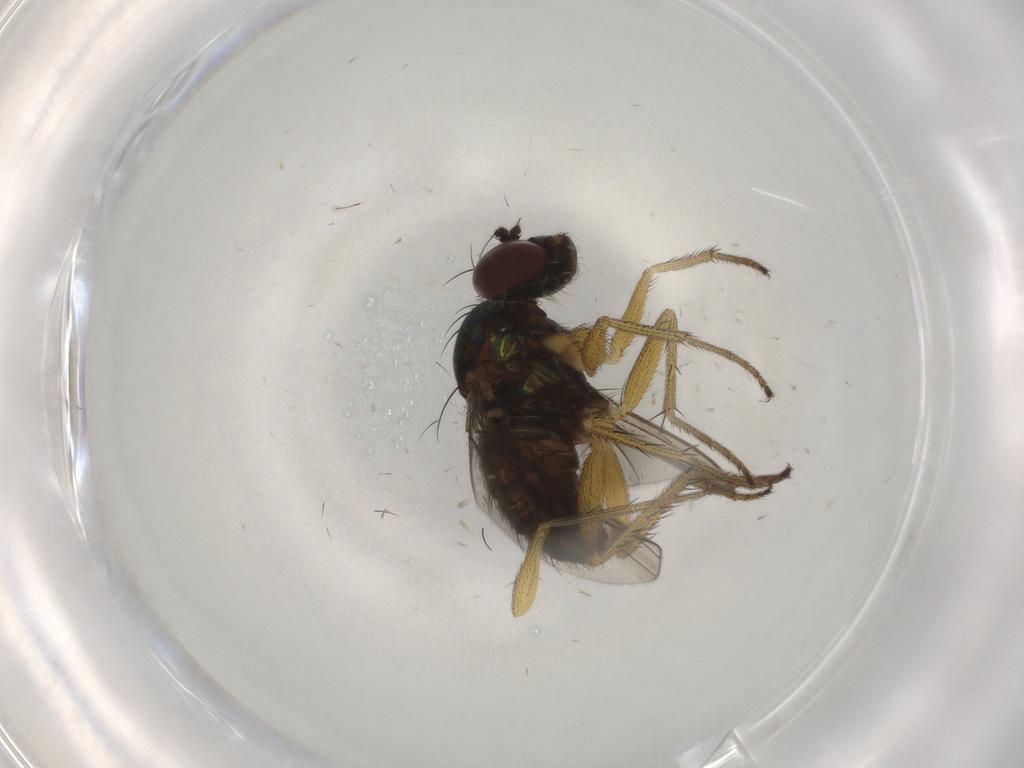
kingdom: Animalia
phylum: Arthropoda
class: Insecta
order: Diptera
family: Dolichopodidae
